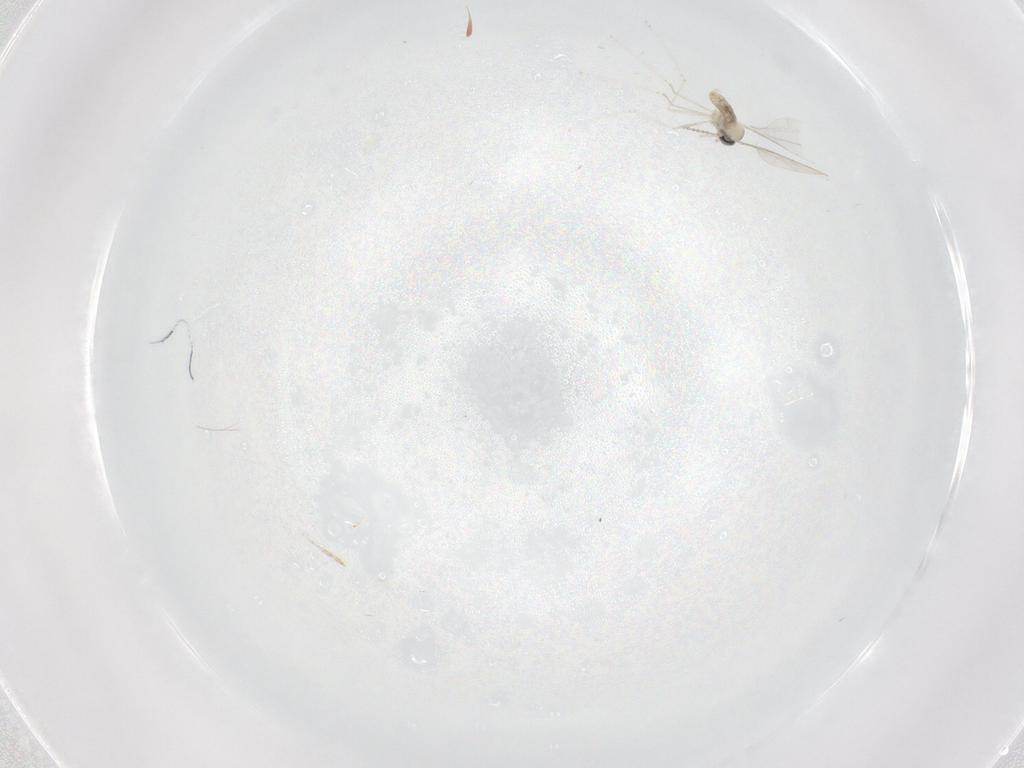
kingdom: Animalia
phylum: Arthropoda
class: Insecta
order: Diptera
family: Cecidomyiidae
